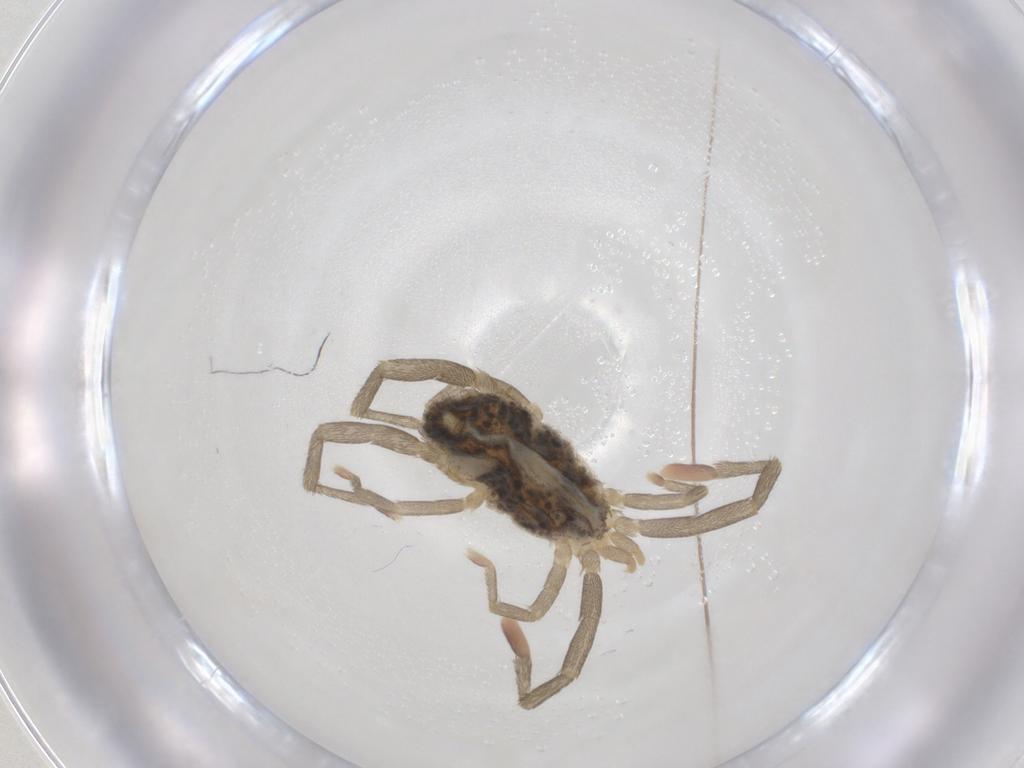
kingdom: Animalia
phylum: Arthropoda
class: Arachnida
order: Trombidiformes
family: Erythraeidae
